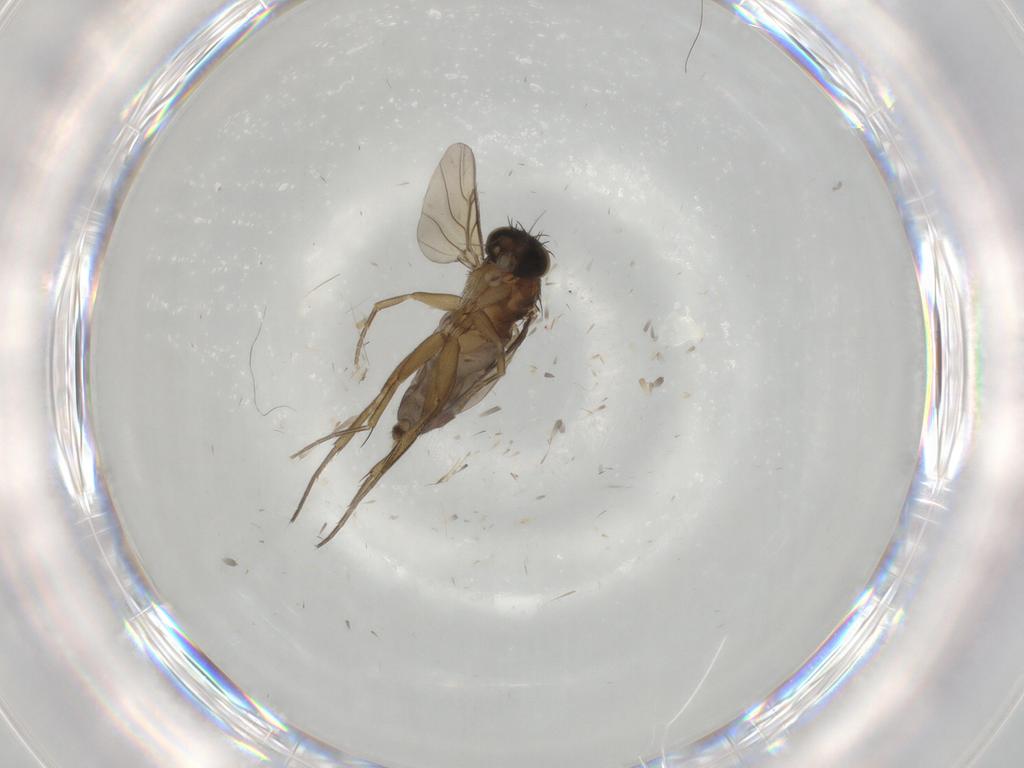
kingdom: Animalia
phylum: Arthropoda
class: Insecta
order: Diptera
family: Phoridae
